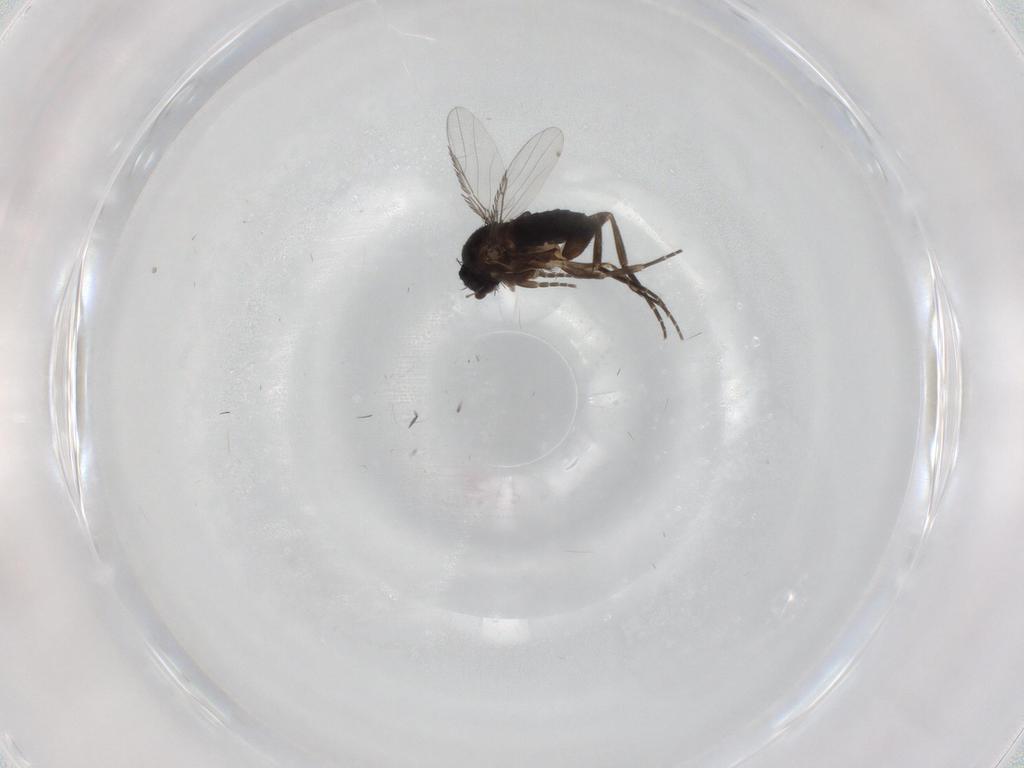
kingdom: Animalia
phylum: Arthropoda
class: Insecta
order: Diptera
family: Phoridae
